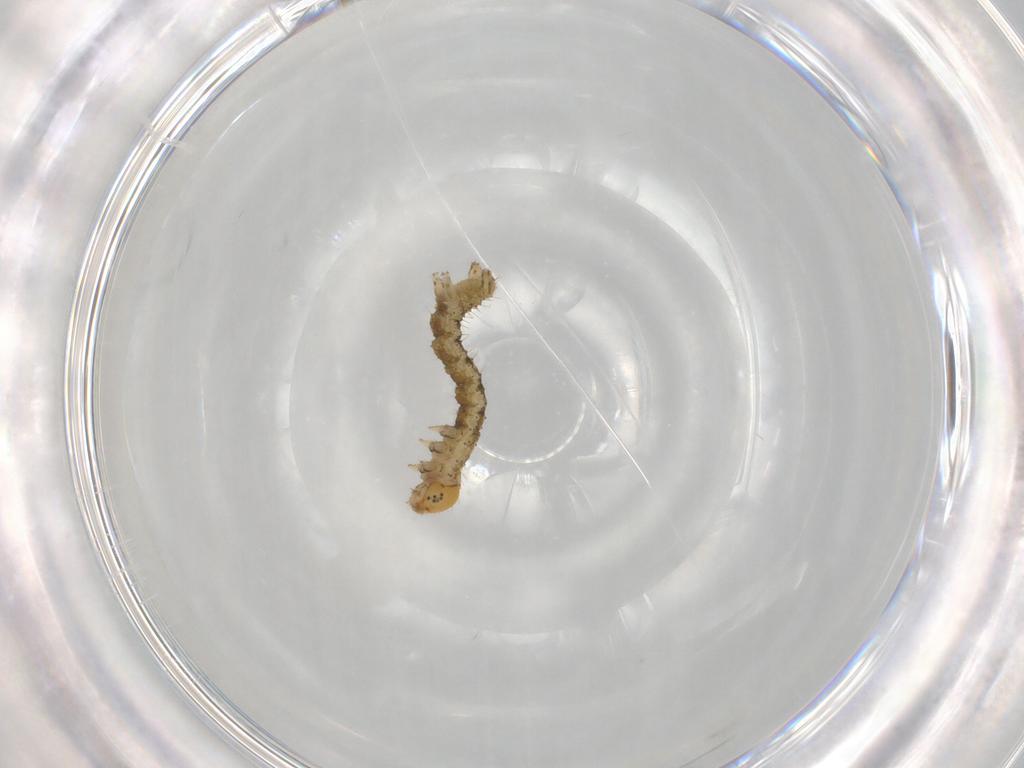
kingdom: Animalia
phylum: Arthropoda
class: Insecta
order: Lepidoptera
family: Geometridae
